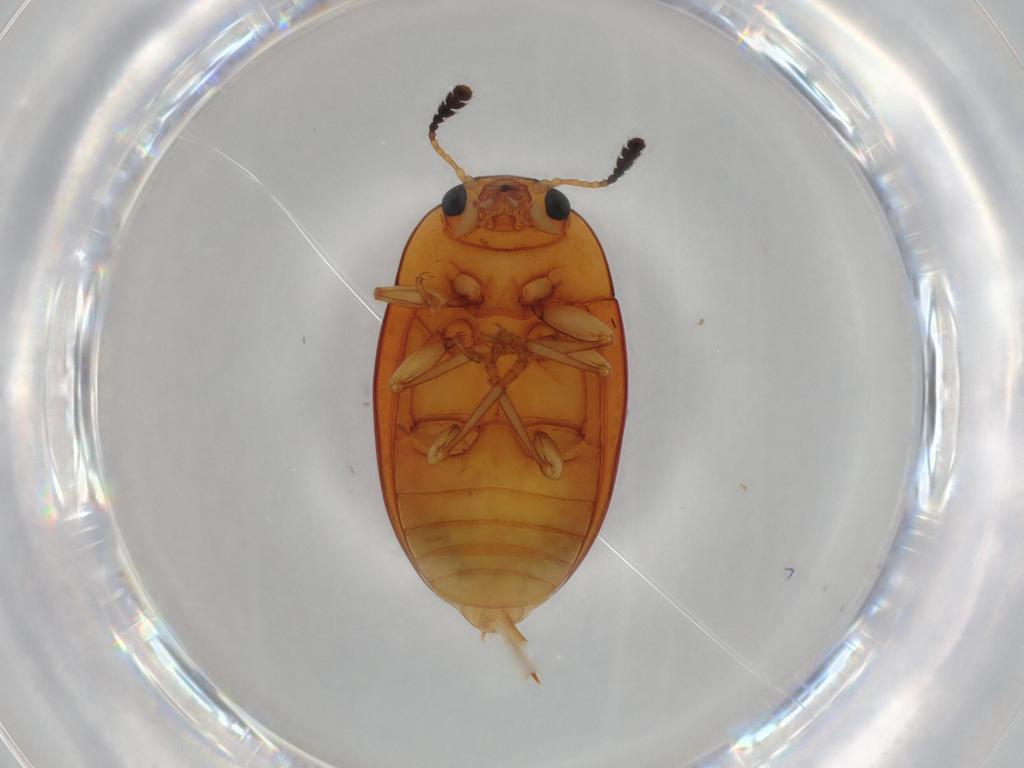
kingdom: Animalia
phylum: Arthropoda
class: Insecta
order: Coleoptera
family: Erotylidae
